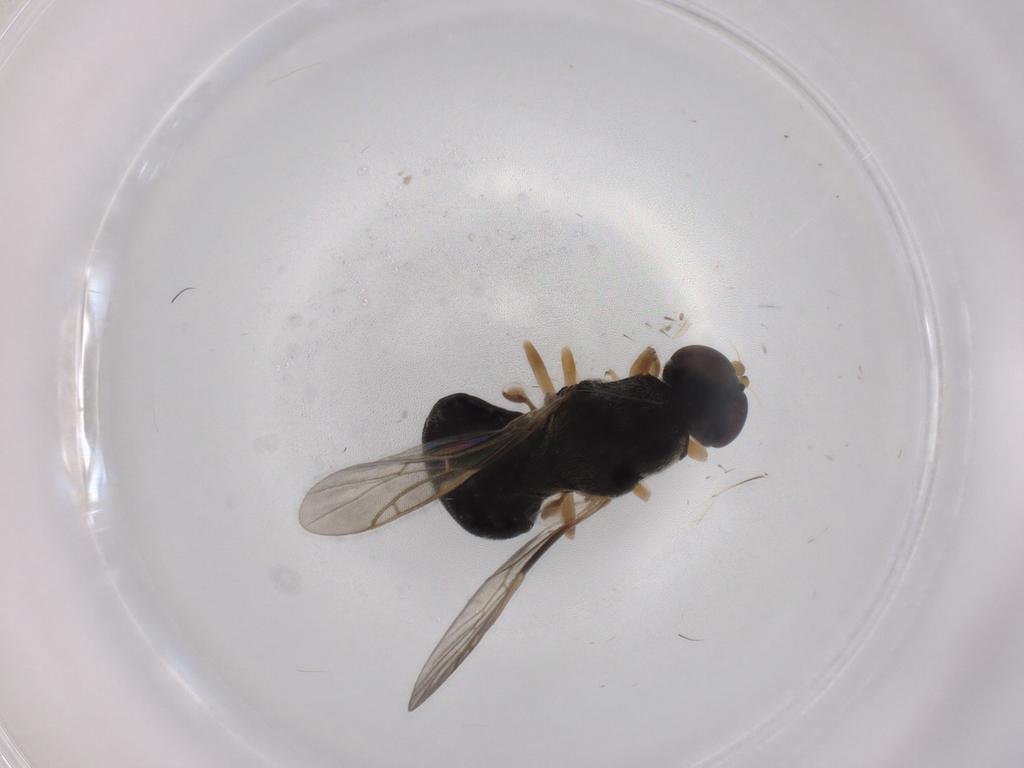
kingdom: Animalia
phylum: Arthropoda
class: Insecta
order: Diptera
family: Stratiomyidae
